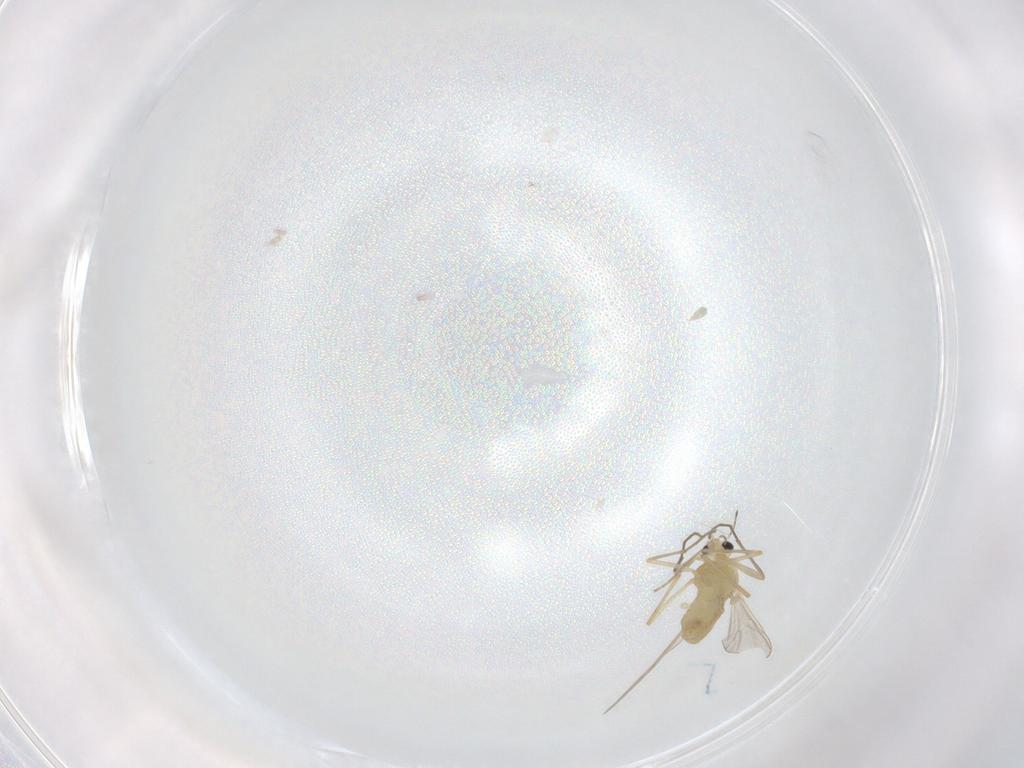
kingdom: Animalia
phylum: Arthropoda
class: Insecta
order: Diptera
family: Chironomidae
